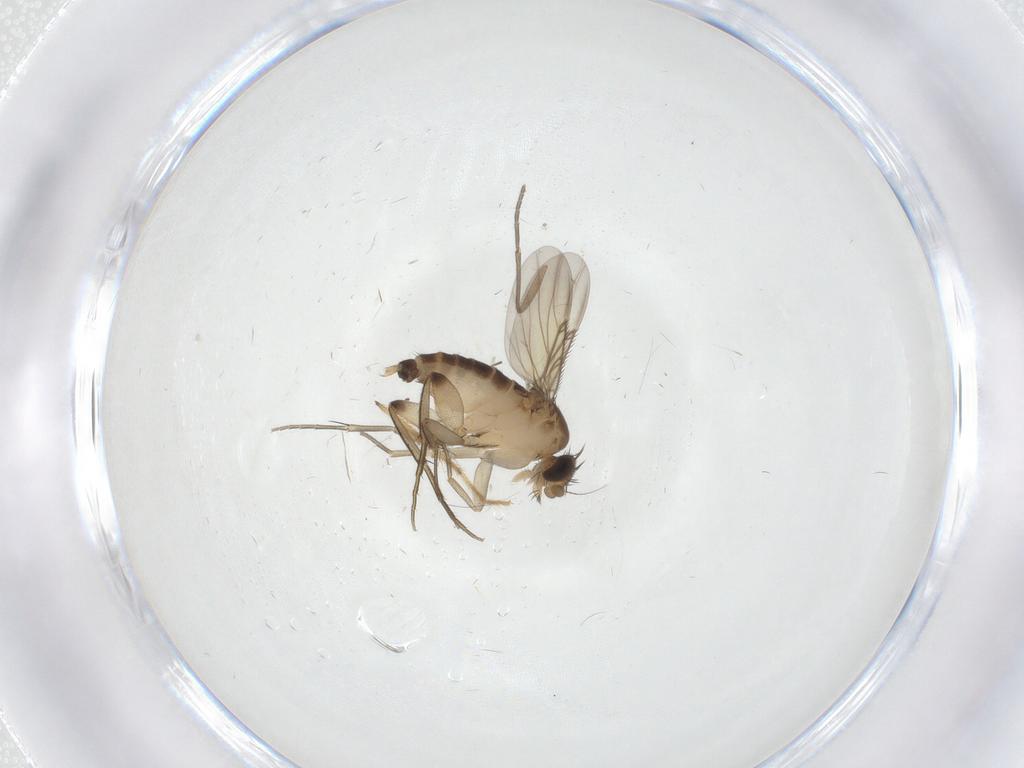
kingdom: Animalia
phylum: Arthropoda
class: Insecta
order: Diptera
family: Chironomidae
